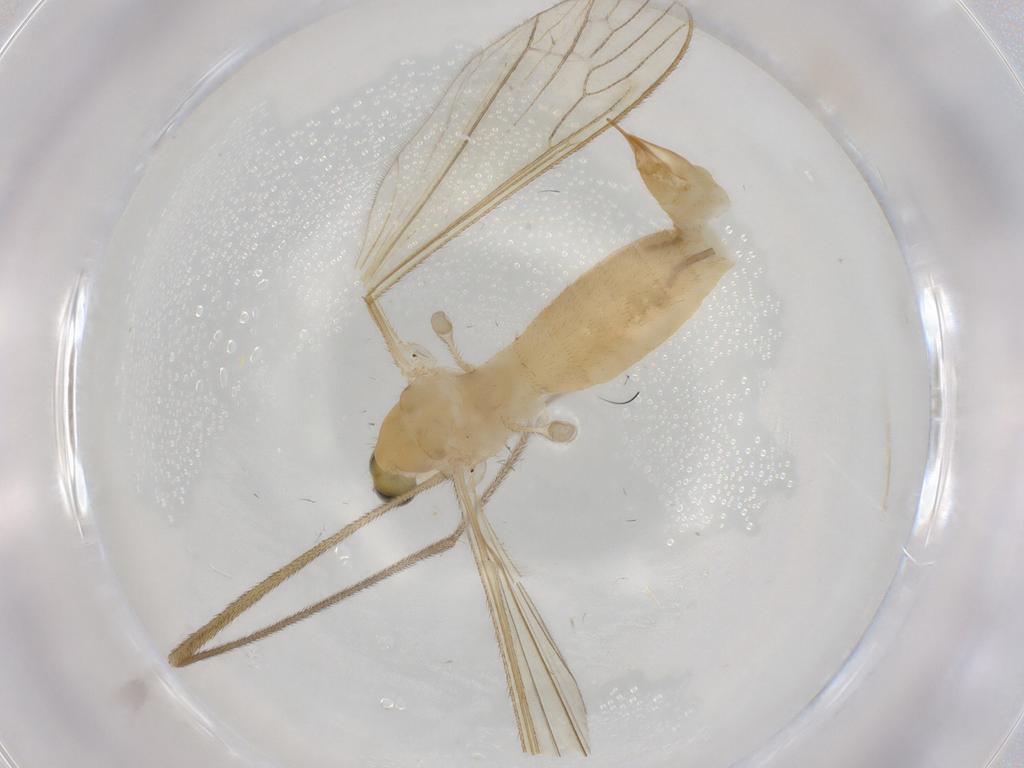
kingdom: Animalia
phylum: Arthropoda
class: Insecta
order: Diptera
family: Limoniidae
